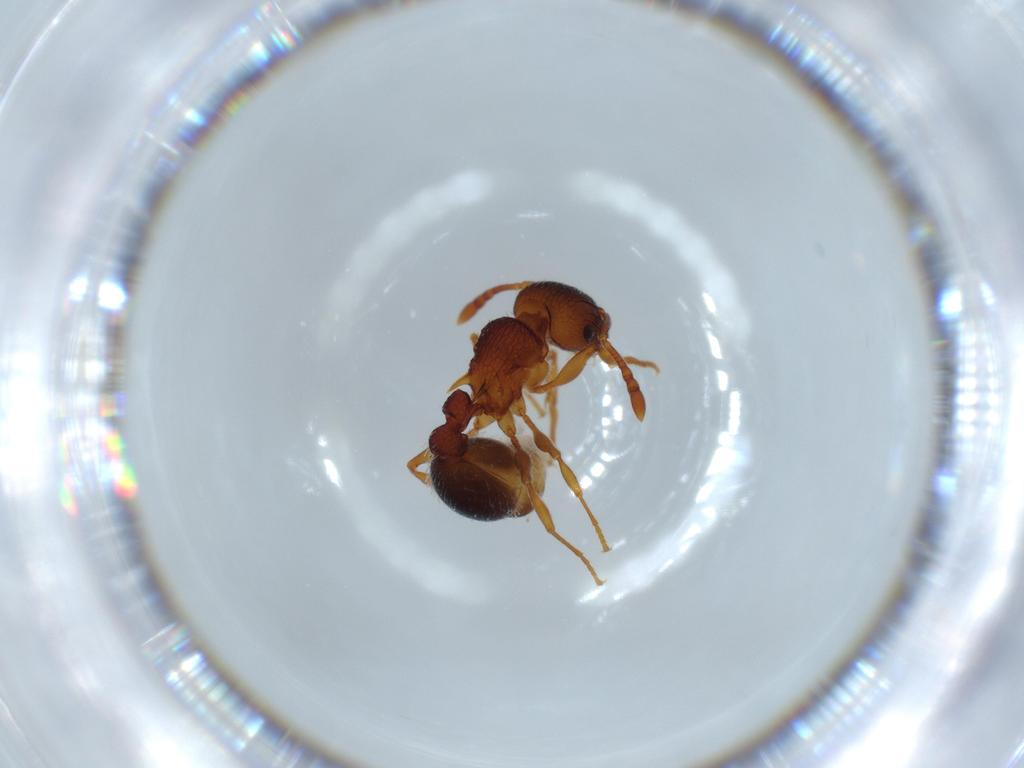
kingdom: Animalia
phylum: Arthropoda
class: Insecta
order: Hymenoptera
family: Formicidae
